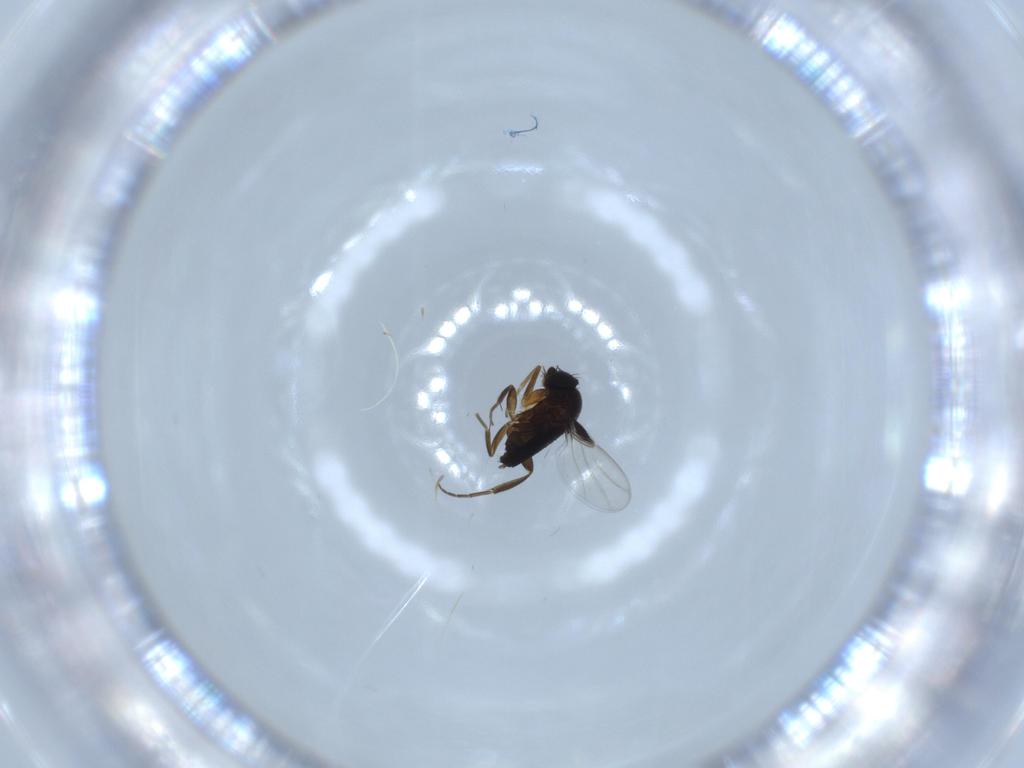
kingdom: Animalia
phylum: Arthropoda
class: Insecta
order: Diptera
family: Phoridae
